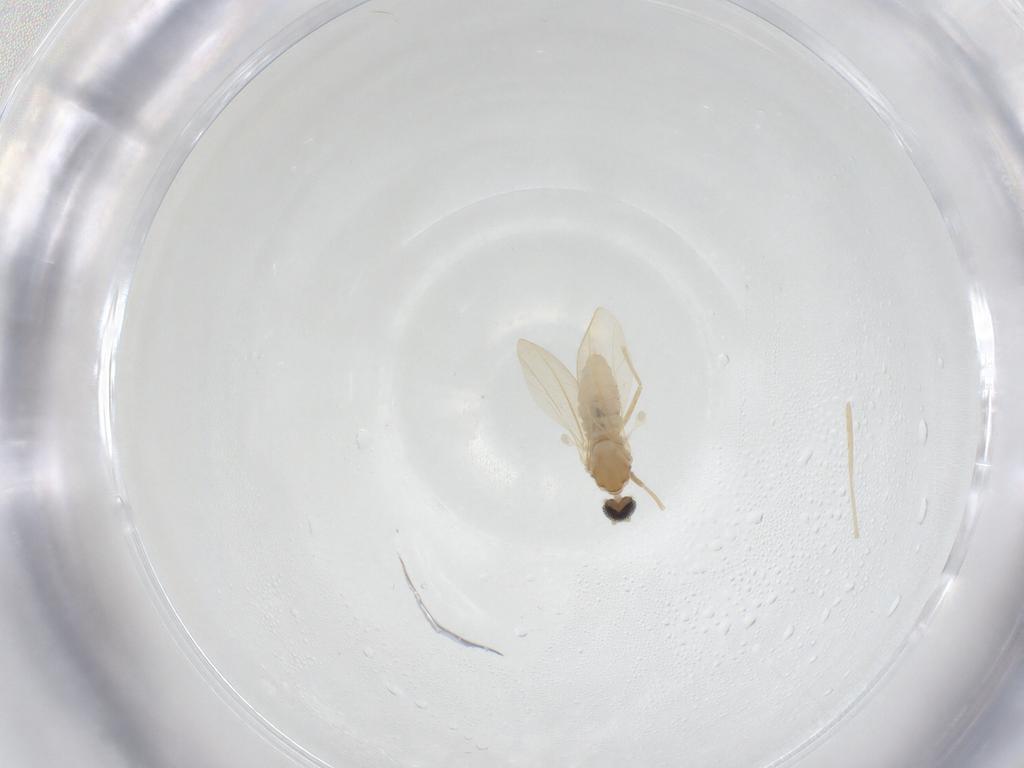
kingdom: Animalia
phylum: Arthropoda
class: Insecta
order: Diptera
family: Cecidomyiidae
